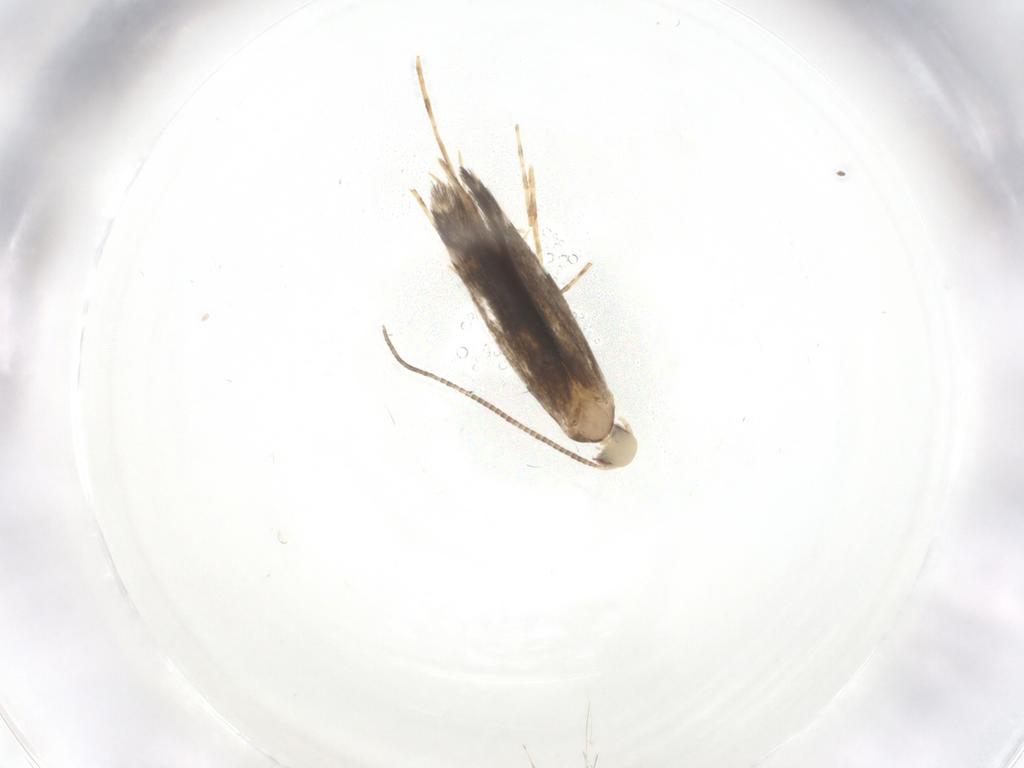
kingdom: Animalia
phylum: Arthropoda
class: Insecta
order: Lepidoptera
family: Gracillariidae
